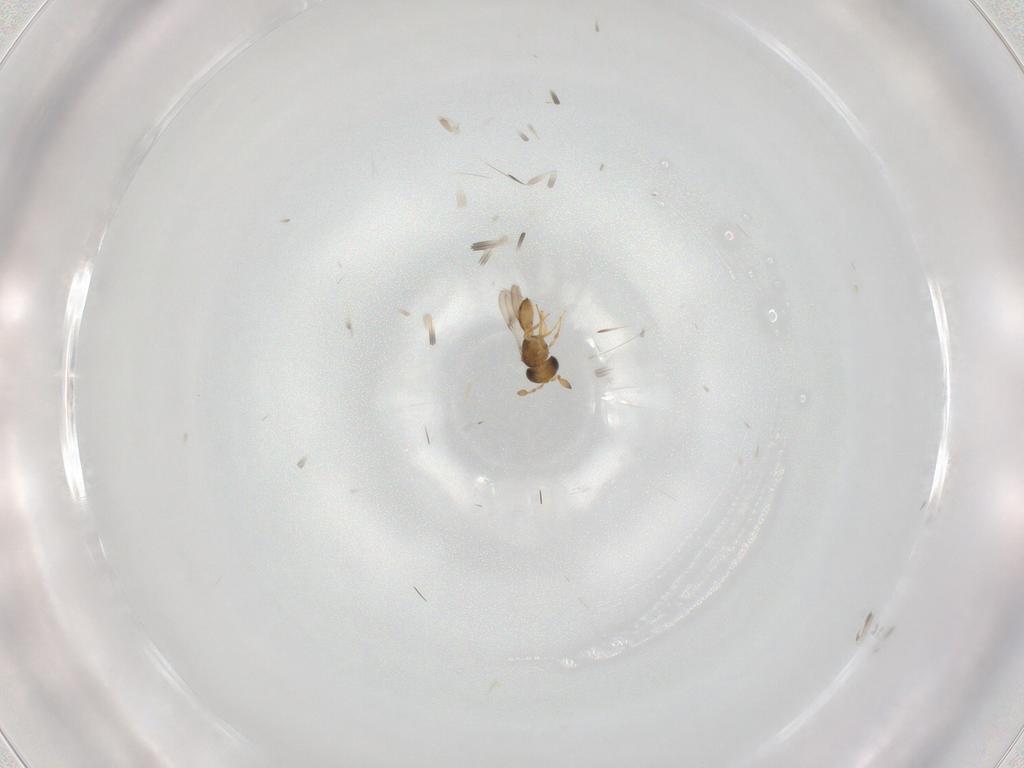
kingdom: Animalia
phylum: Arthropoda
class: Insecta
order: Hymenoptera
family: Scelionidae
